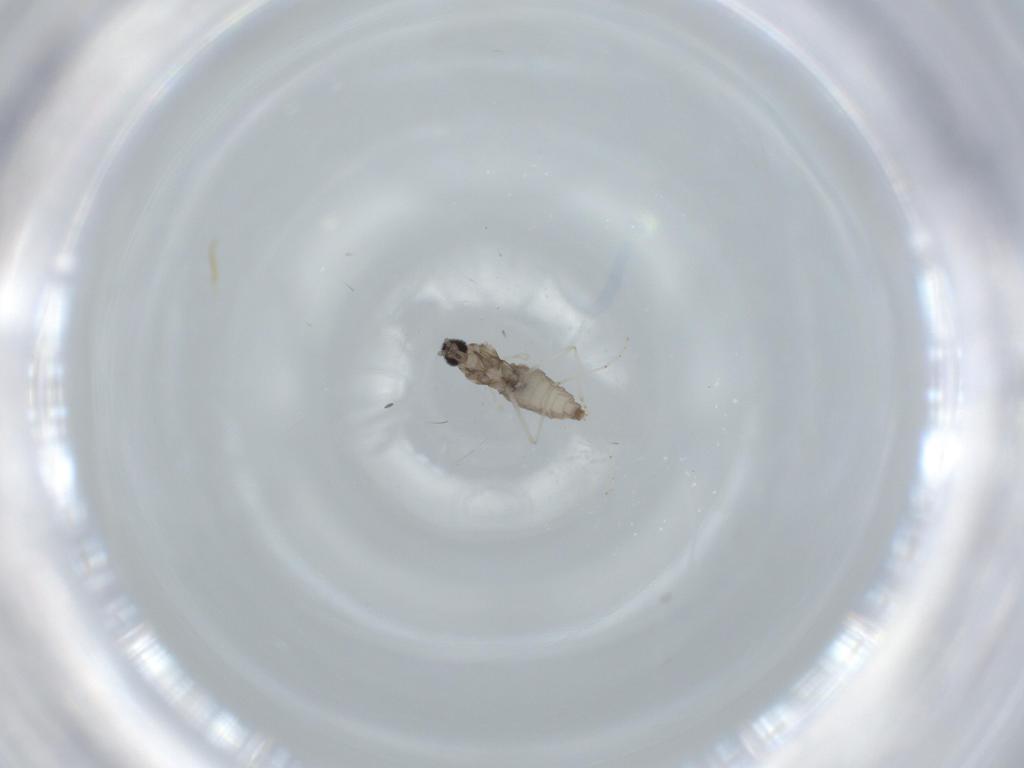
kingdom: Animalia
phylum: Arthropoda
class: Insecta
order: Diptera
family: Cecidomyiidae
